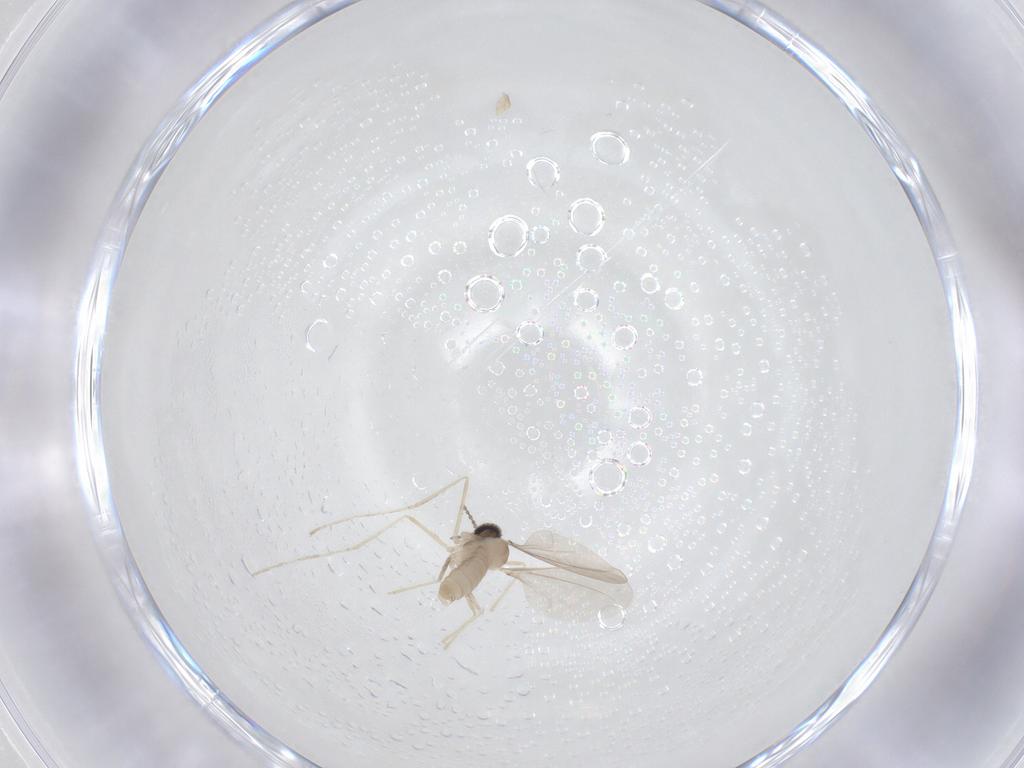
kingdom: Animalia
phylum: Arthropoda
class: Insecta
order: Diptera
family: Cecidomyiidae
